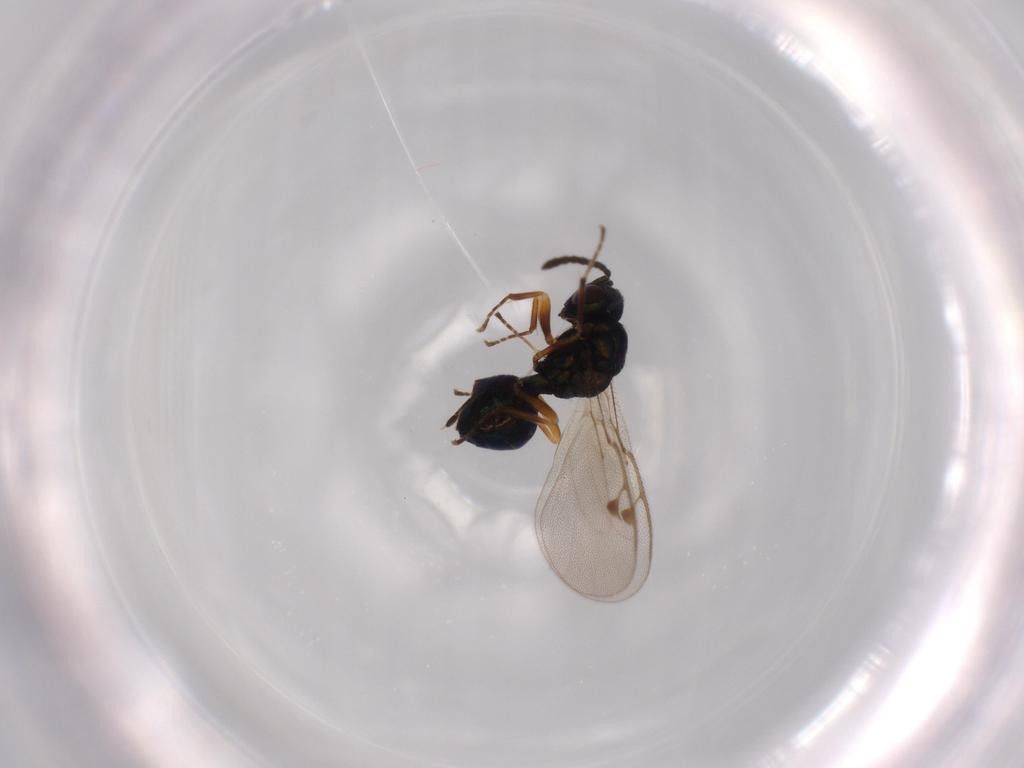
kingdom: Animalia
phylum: Arthropoda
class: Insecta
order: Hymenoptera
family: Pteromalidae
